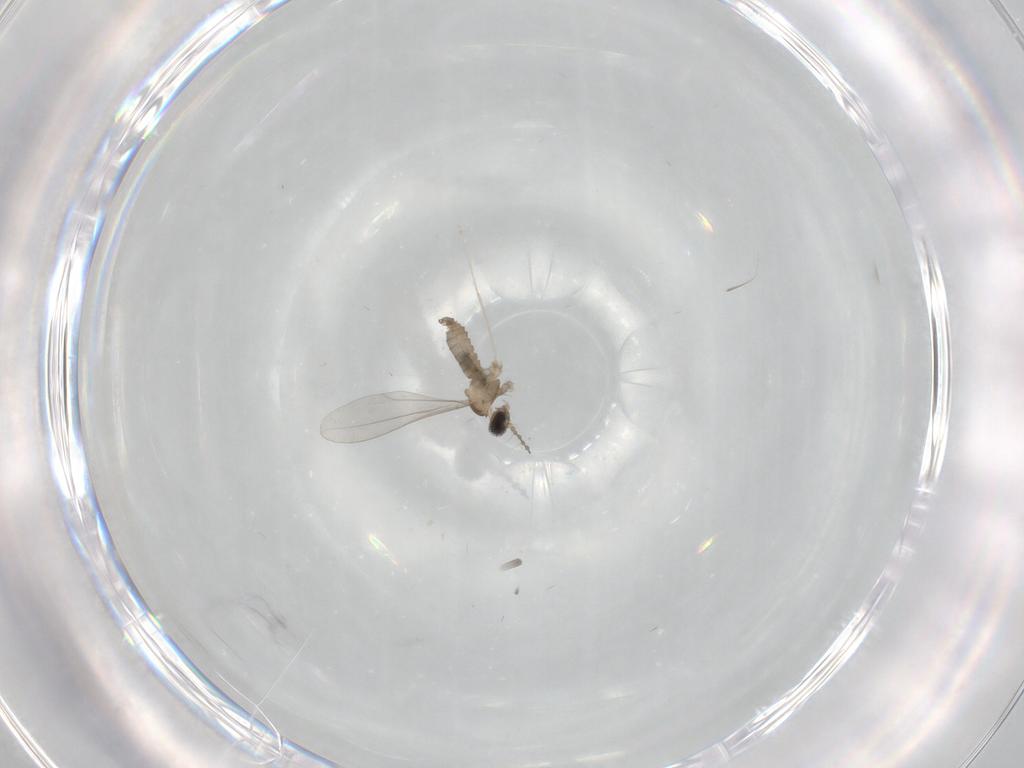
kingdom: Animalia
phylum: Arthropoda
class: Insecta
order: Diptera
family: Cecidomyiidae
